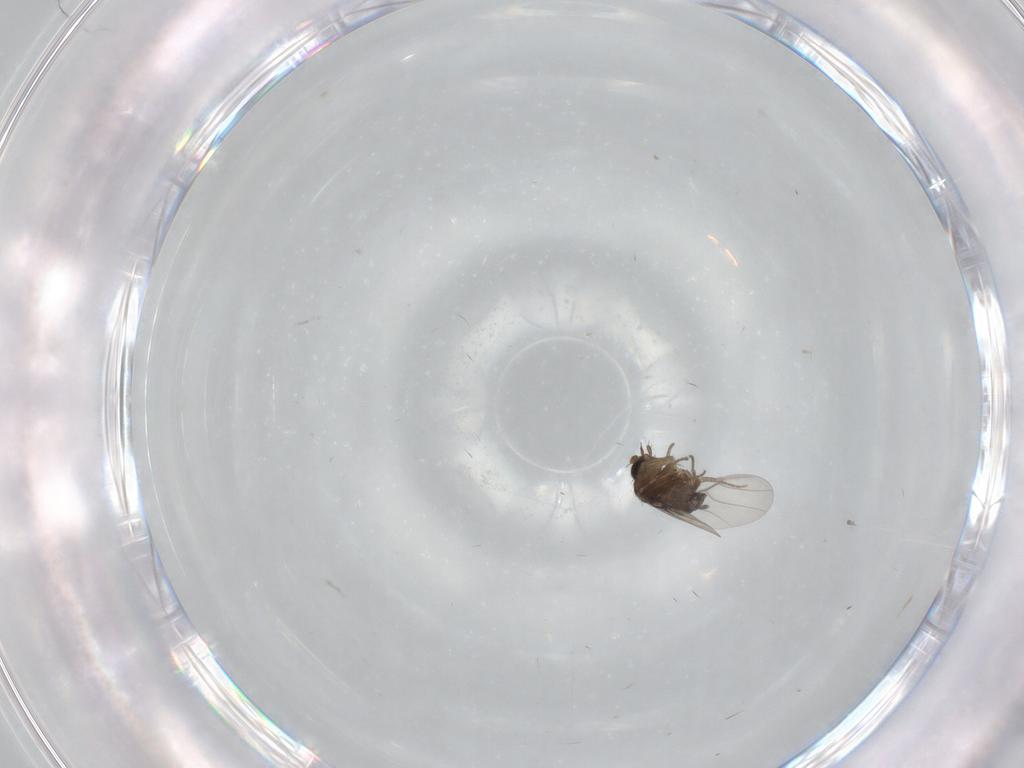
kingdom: Animalia
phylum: Arthropoda
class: Insecta
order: Diptera
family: Phoridae
